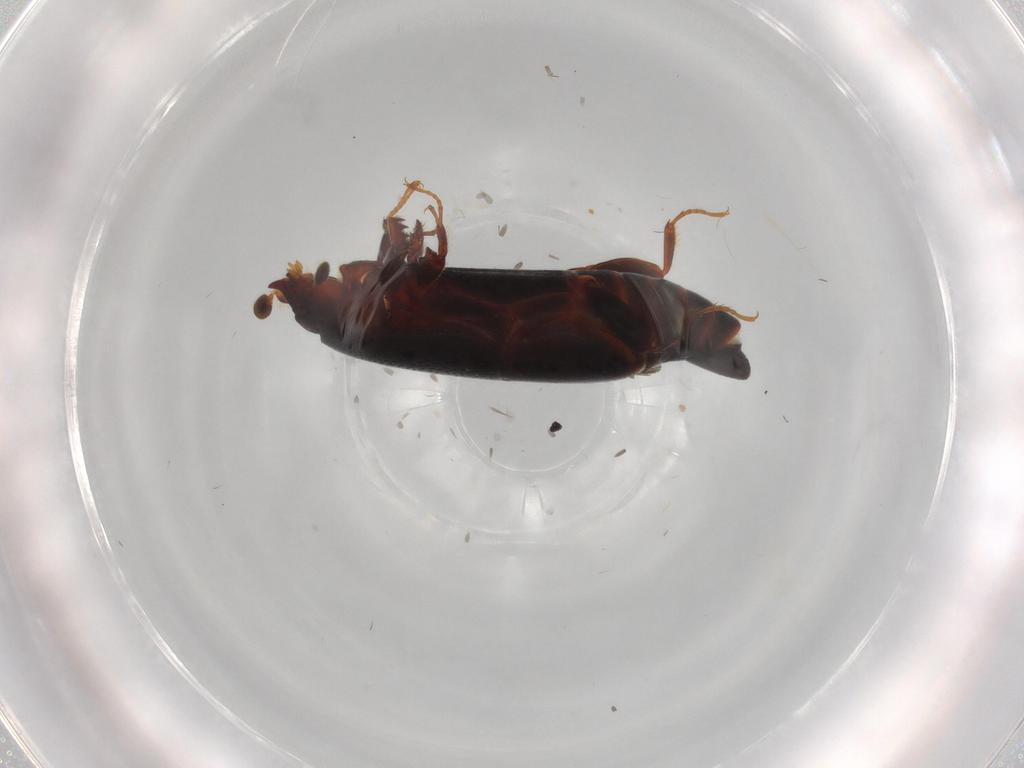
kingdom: Animalia
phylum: Arthropoda
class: Insecta
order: Coleoptera
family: Histeridae
